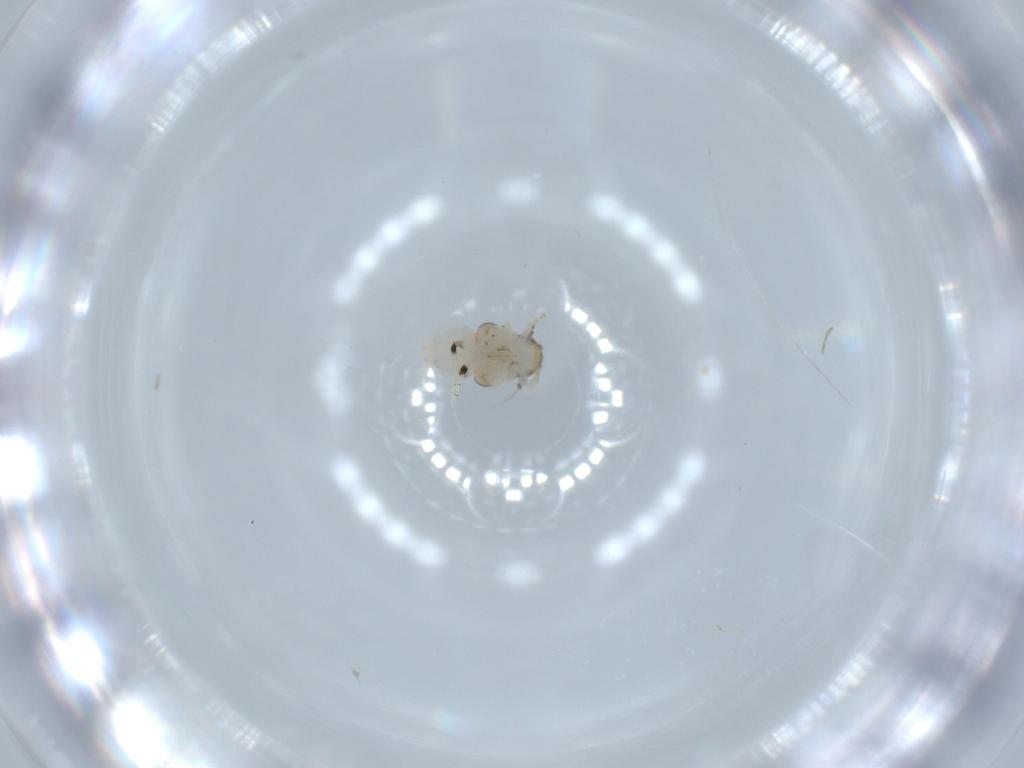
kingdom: Animalia
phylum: Arthropoda
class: Insecta
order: Hemiptera
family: Nogodinidae
